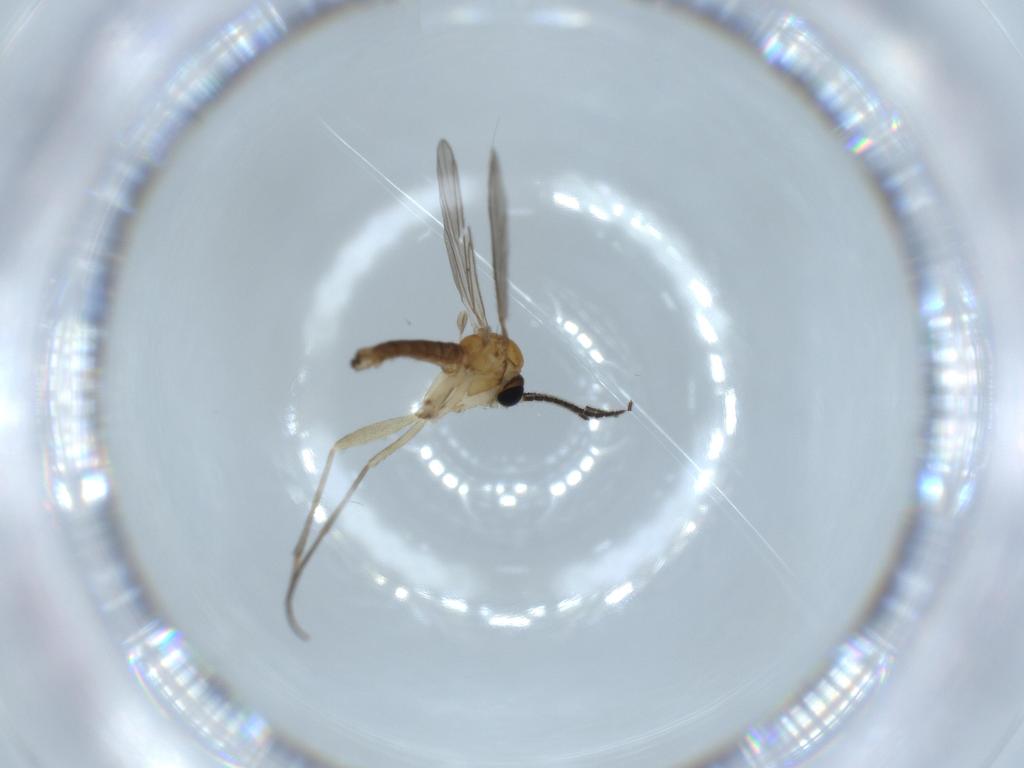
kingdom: Animalia
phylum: Arthropoda
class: Insecta
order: Diptera
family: Sciaridae
